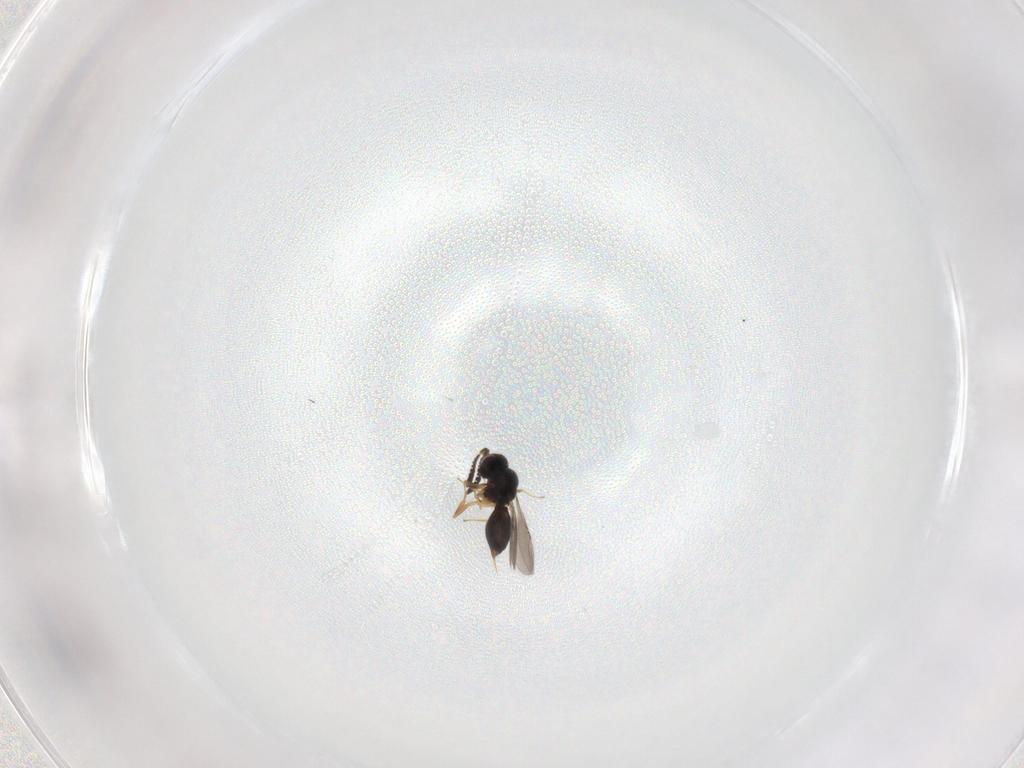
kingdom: Animalia
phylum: Arthropoda
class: Insecta
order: Hymenoptera
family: Ceraphronidae
